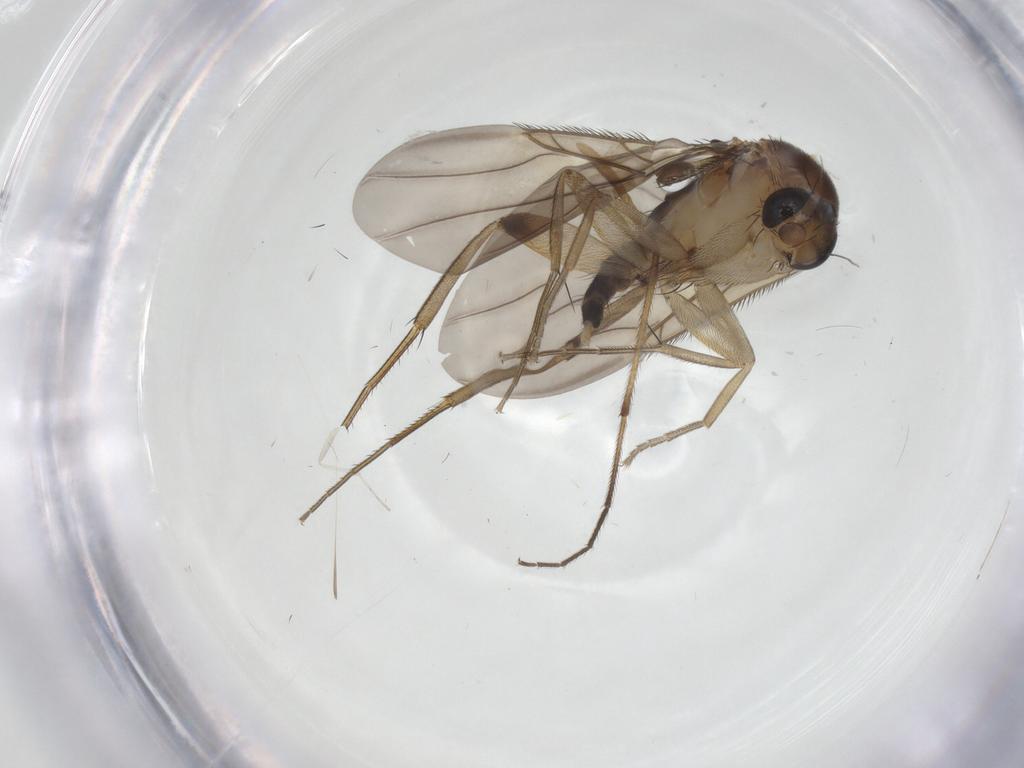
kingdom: Animalia
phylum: Arthropoda
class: Insecta
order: Diptera
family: Phoridae
